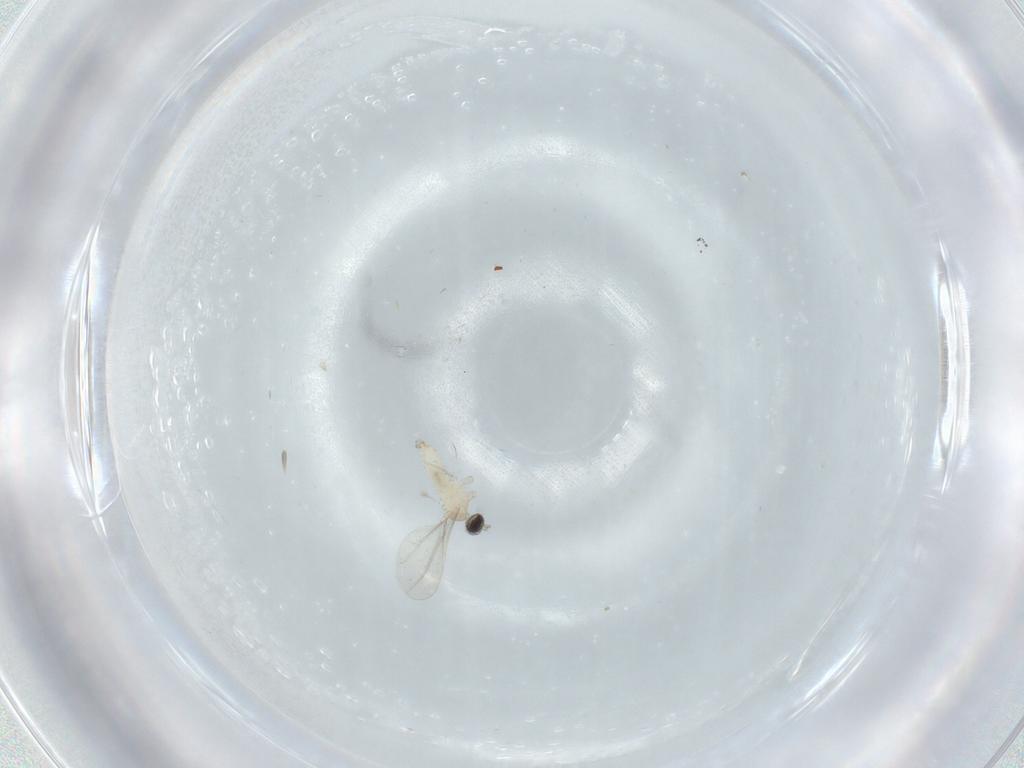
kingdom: Animalia
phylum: Arthropoda
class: Insecta
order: Diptera
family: Cecidomyiidae
